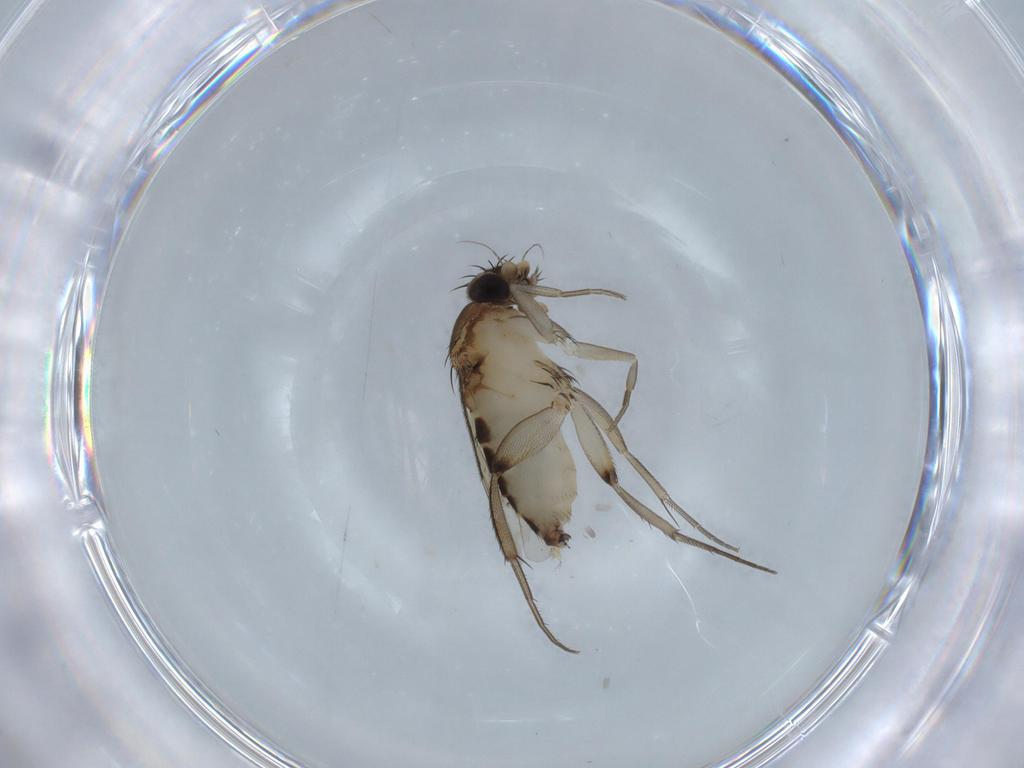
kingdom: Animalia
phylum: Arthropoda
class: Insecta
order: Diptera
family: Phoridae
